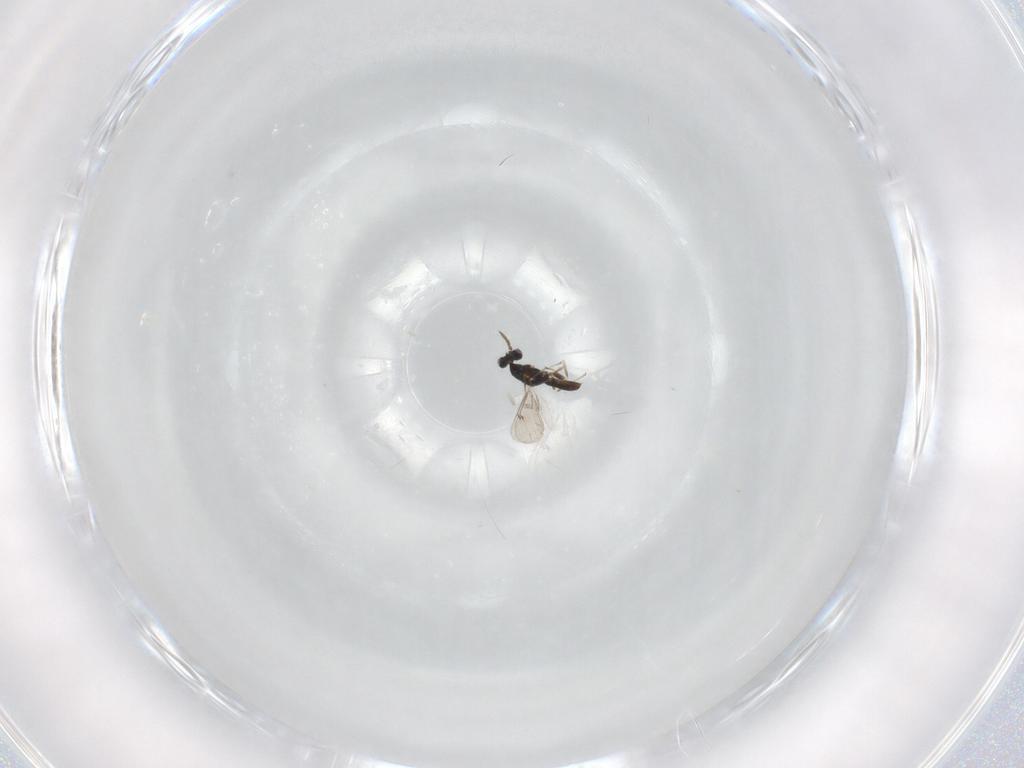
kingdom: Animalia
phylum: Arthropoda
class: Insecta
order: Hymenoptera
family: Eulophidae
